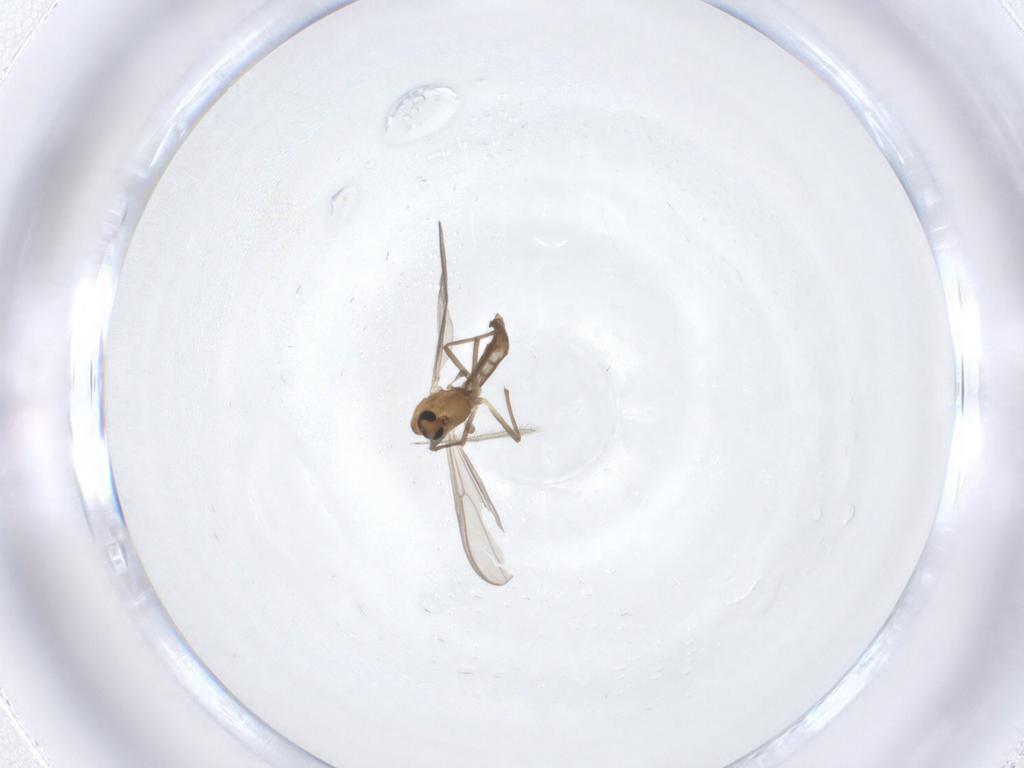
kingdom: Animalia
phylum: Arthropoda
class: Insecta
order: Diptera
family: Chironomidae
